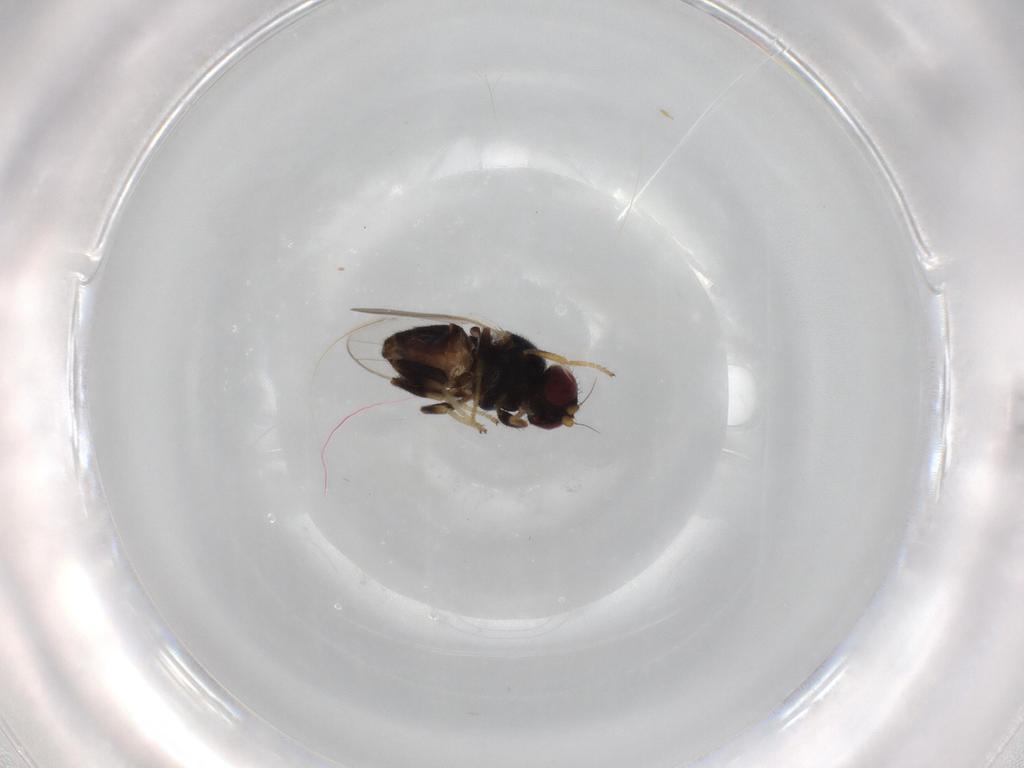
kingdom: Animalia
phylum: Arthropoda
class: Insecta
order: Diptera
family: Chloropidae
